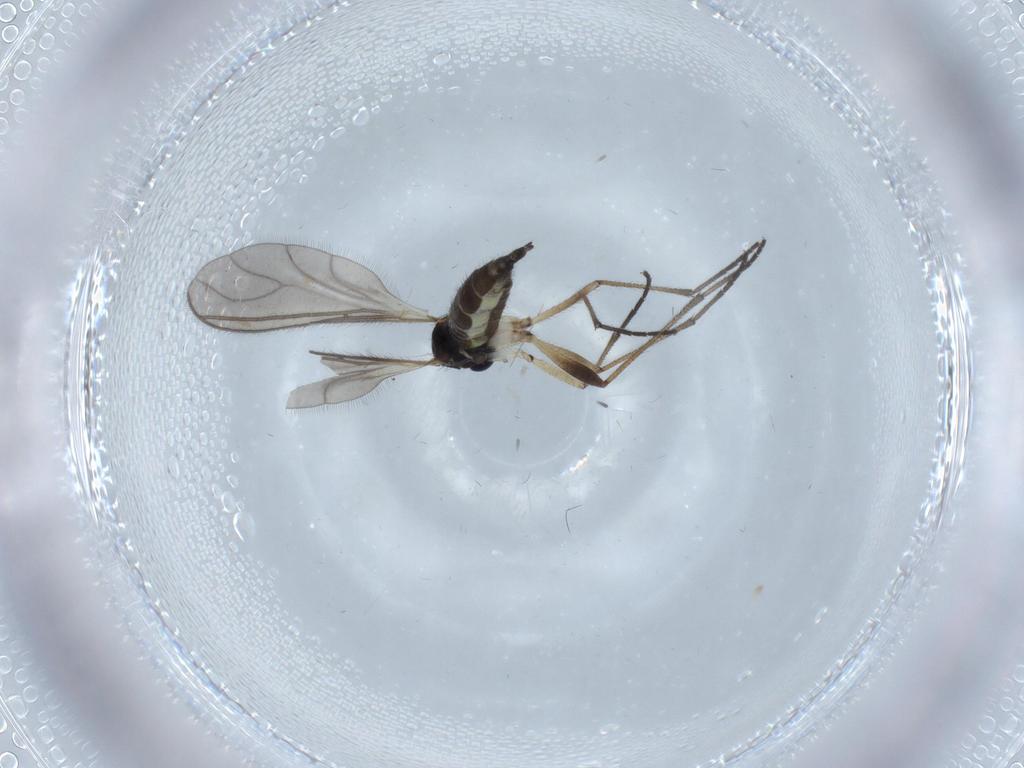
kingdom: Animalia
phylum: Arthropoda
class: Insecta
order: Diptera
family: Sciaridae
